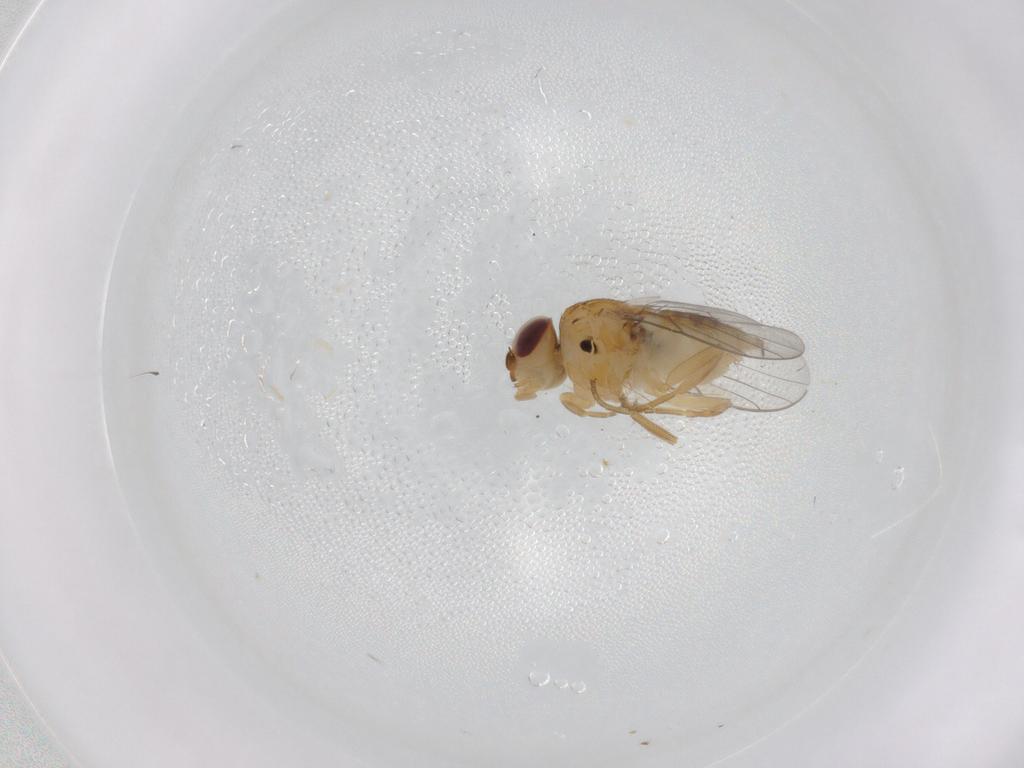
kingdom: Animalia
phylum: Arthropoda
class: Insecta
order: Diptera
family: Chloropidae
